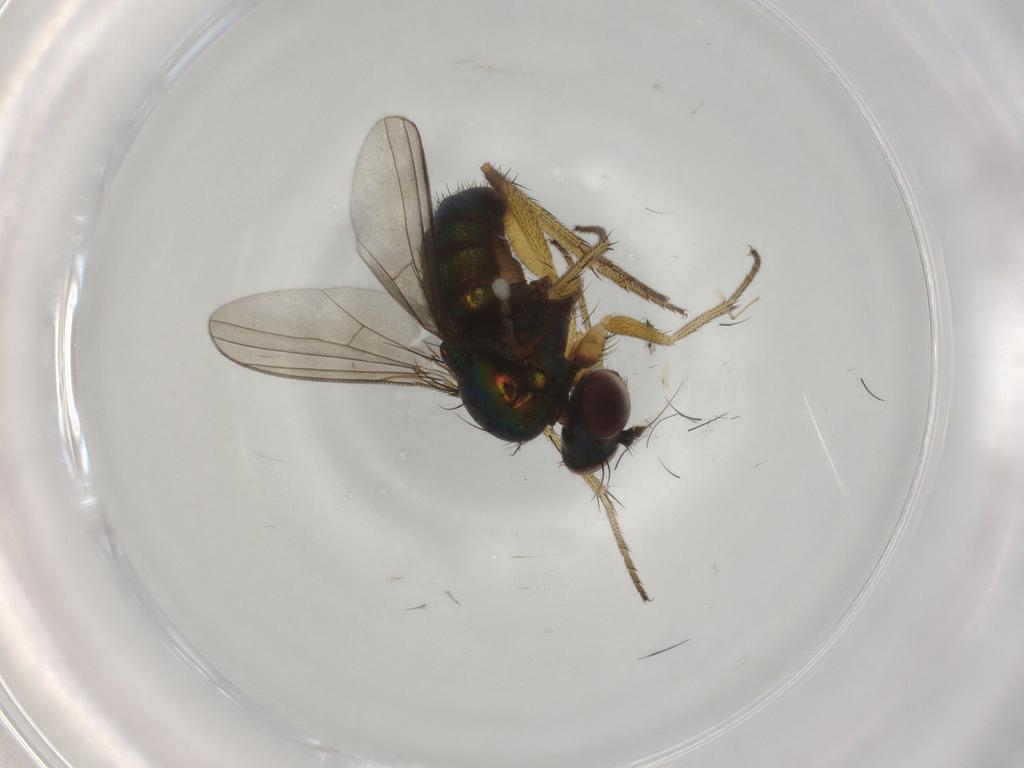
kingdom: Animalia
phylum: Arthropoda
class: Insecta
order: Diptera
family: Dolichopodidae
